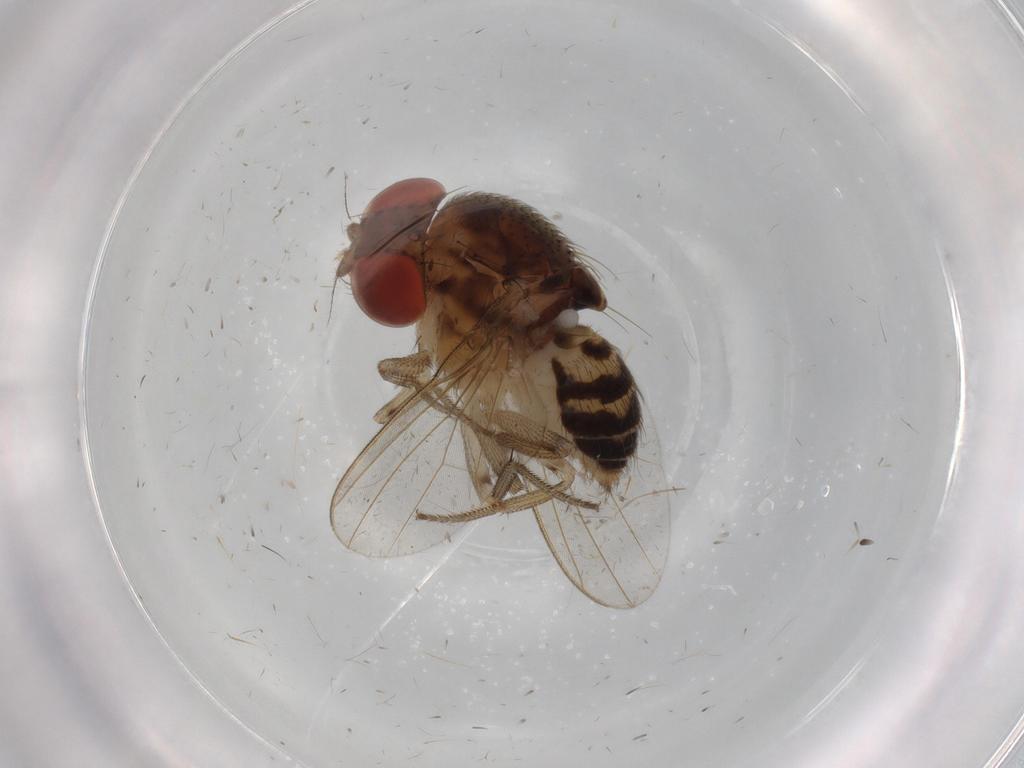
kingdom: Animalia
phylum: Arthropoda
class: Insecta
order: Diptera
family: Drosophilidae
